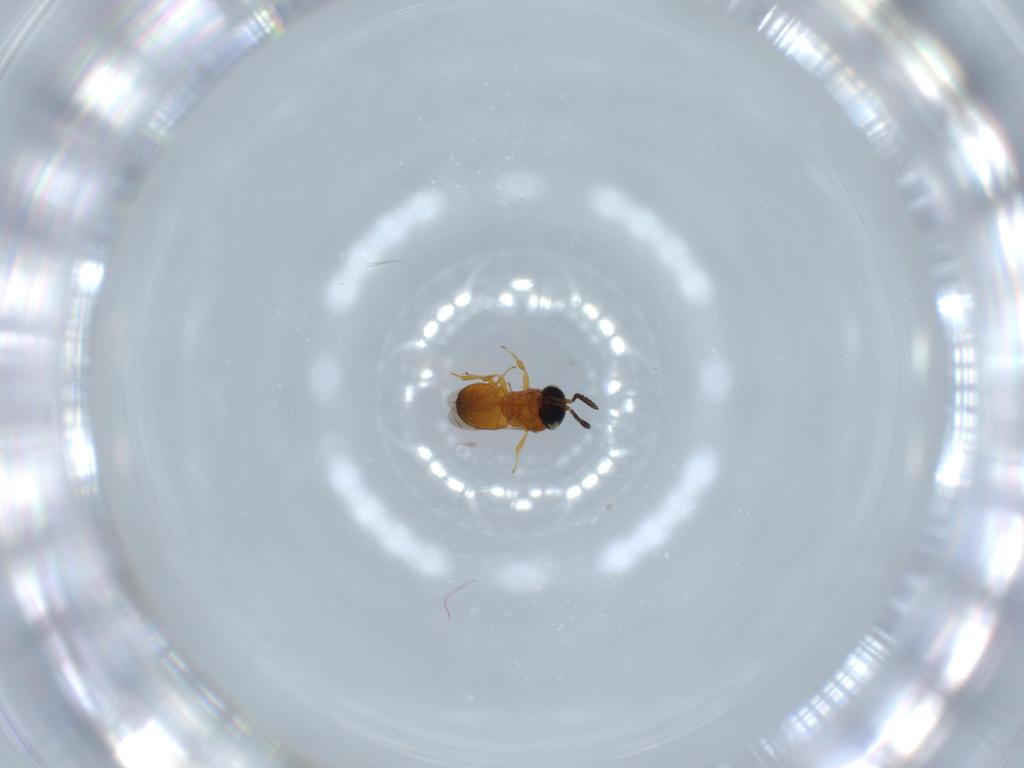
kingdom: Animalia
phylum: Arthropoda
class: Insecta
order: Hymenoptera
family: Scelionidae
